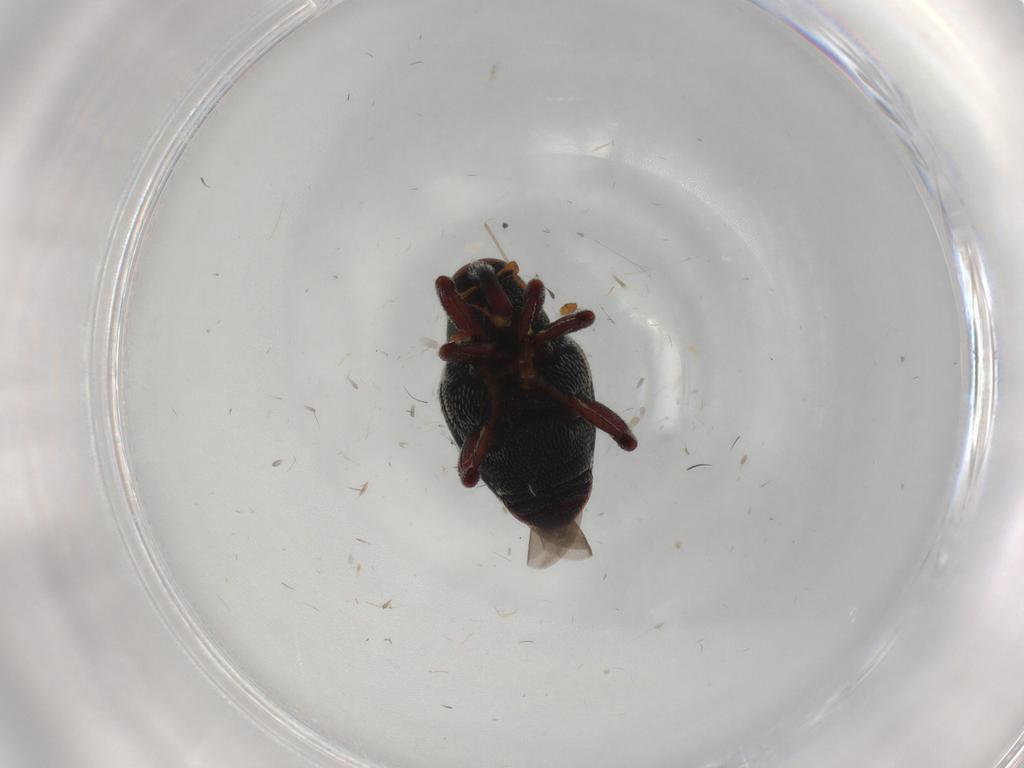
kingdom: Animalia
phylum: Arthropoda
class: Insecta
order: Coleoptera
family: Curculionidae
